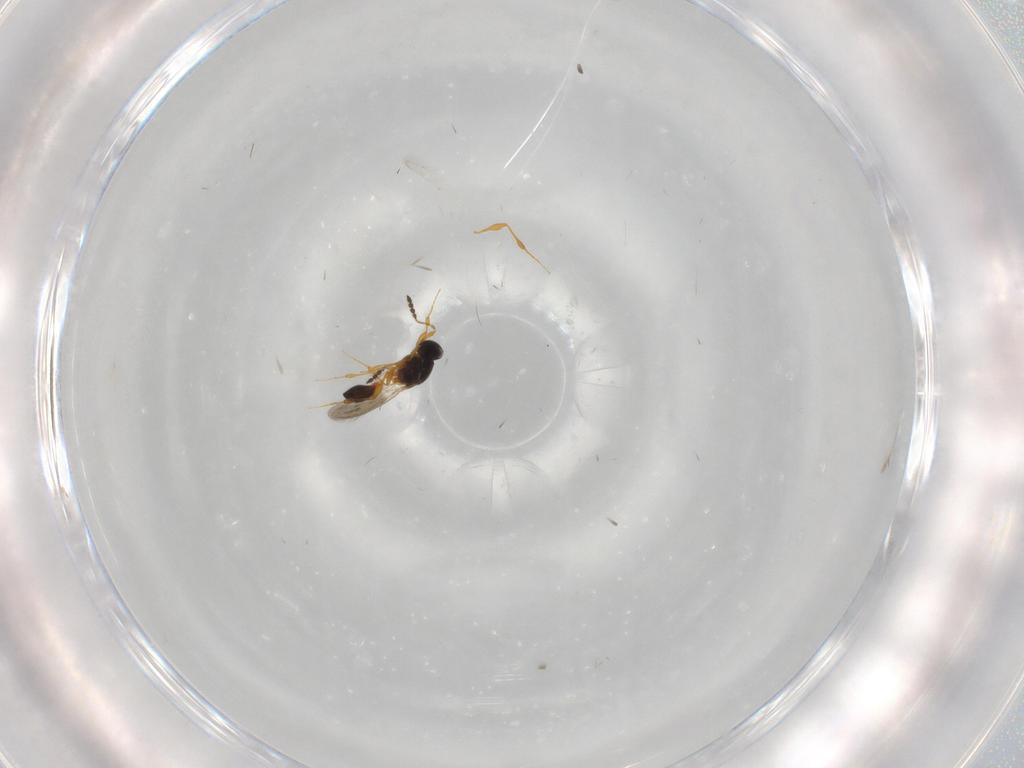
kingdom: Animalia
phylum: Arthropoda
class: Insecta
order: Hymenoptera
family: Platygastridae
